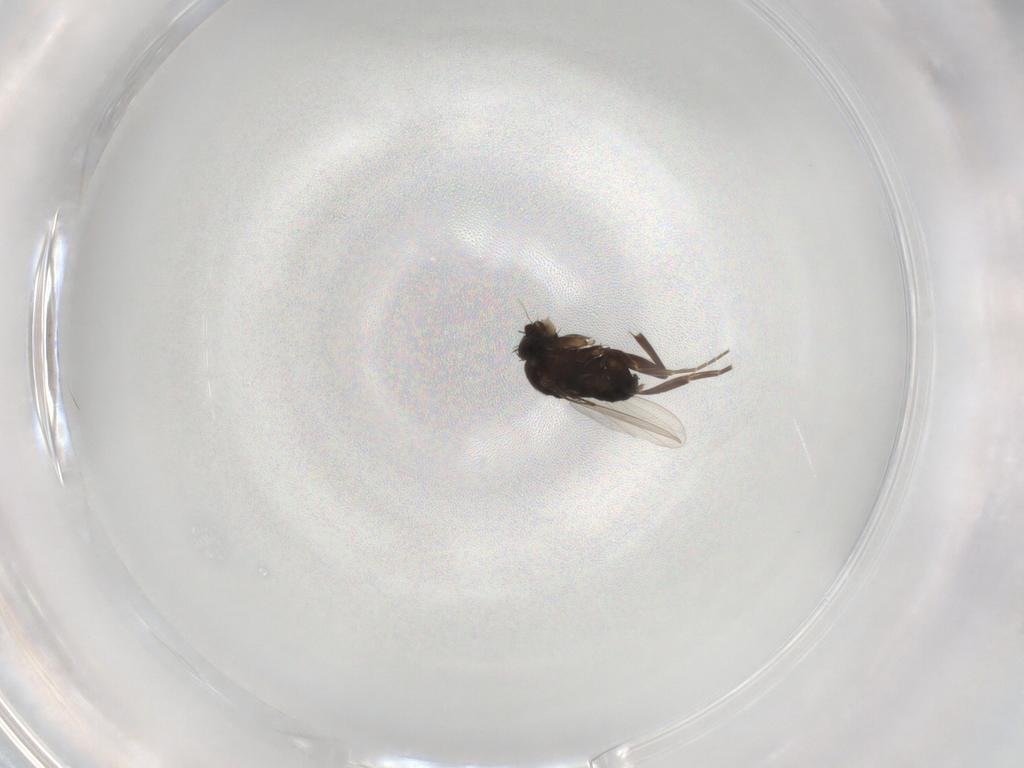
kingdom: Animalia
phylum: Arthropoda
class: Insecta
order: Diptera
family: Phoridae
